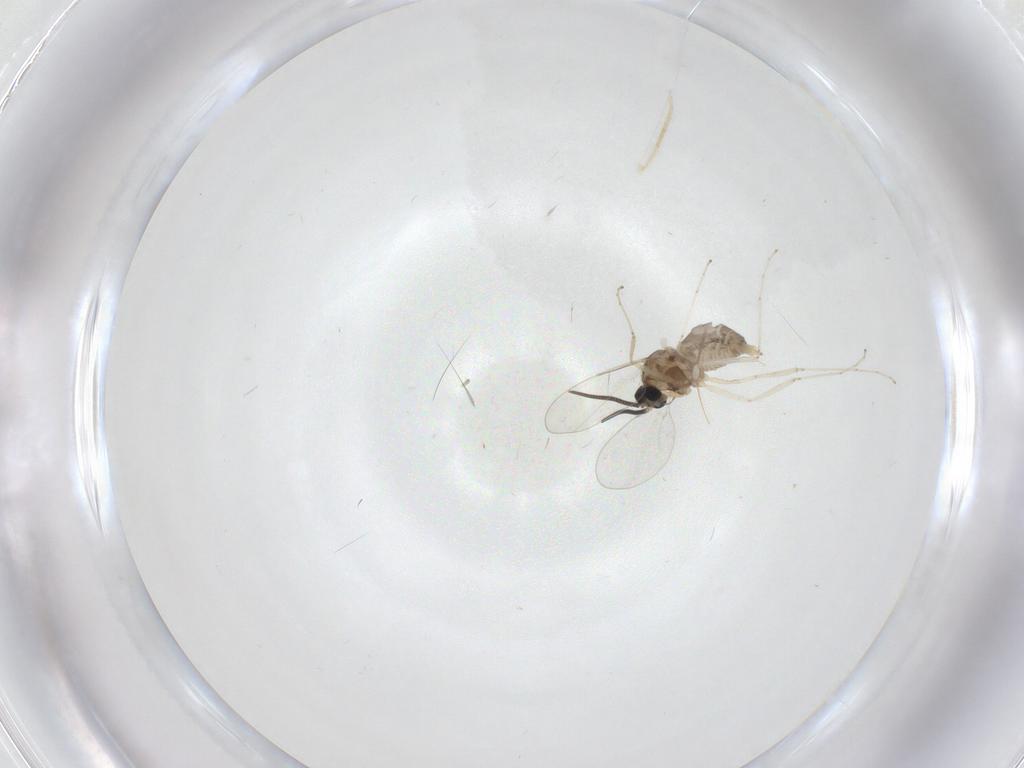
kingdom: Animalia
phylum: Arthropoda
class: Insecta
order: Diptera
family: Cecidomyiidae
